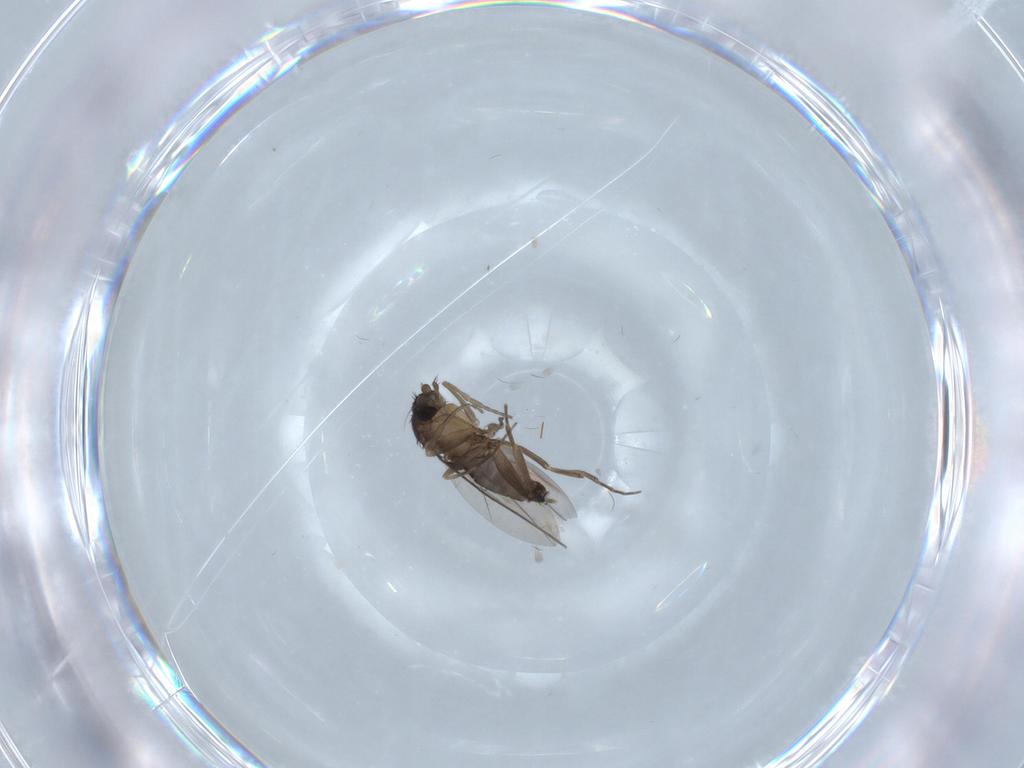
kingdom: Animalia
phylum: Arthropoda
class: Insecta
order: Diptera
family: Phoridae
